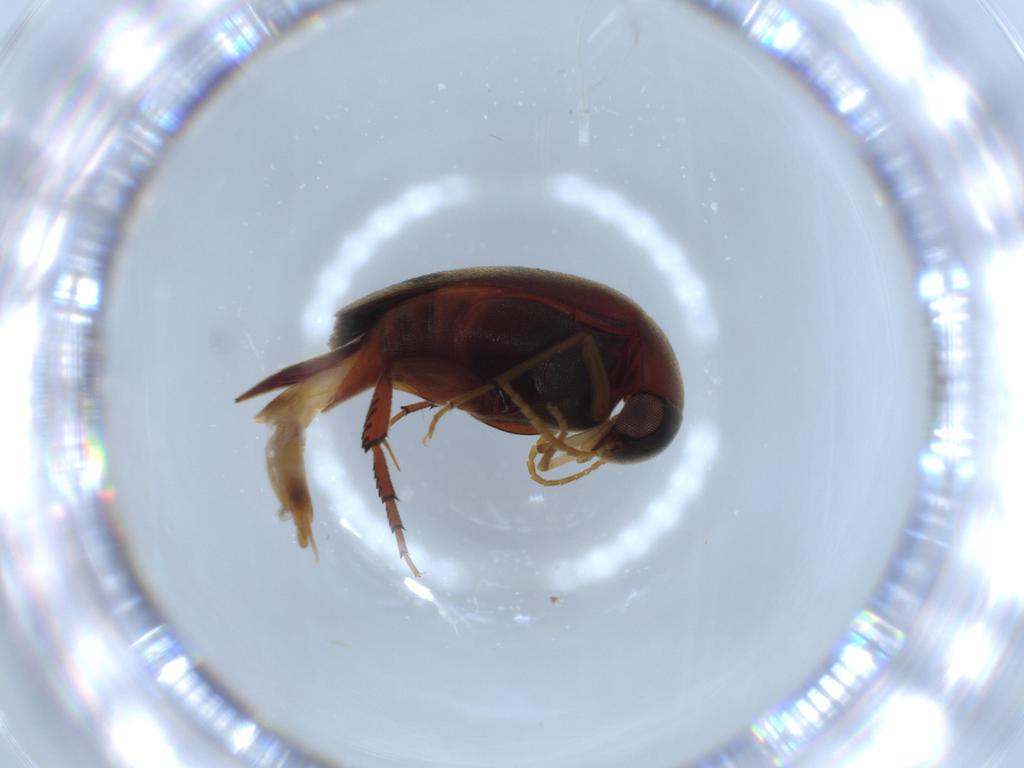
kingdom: Animalia
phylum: Arthropoda
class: Insecta
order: Coleoptera
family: Mordellidae
